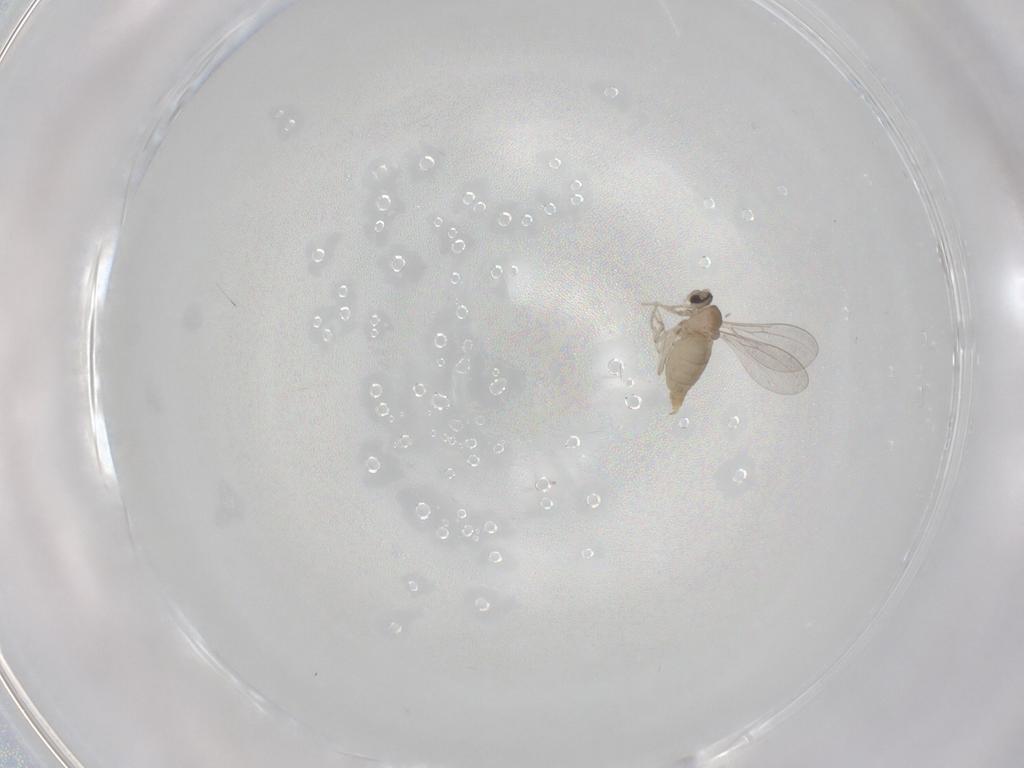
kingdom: Animalia
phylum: Arthropoda
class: Insecta
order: Diptera
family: Cecidomyiidae
